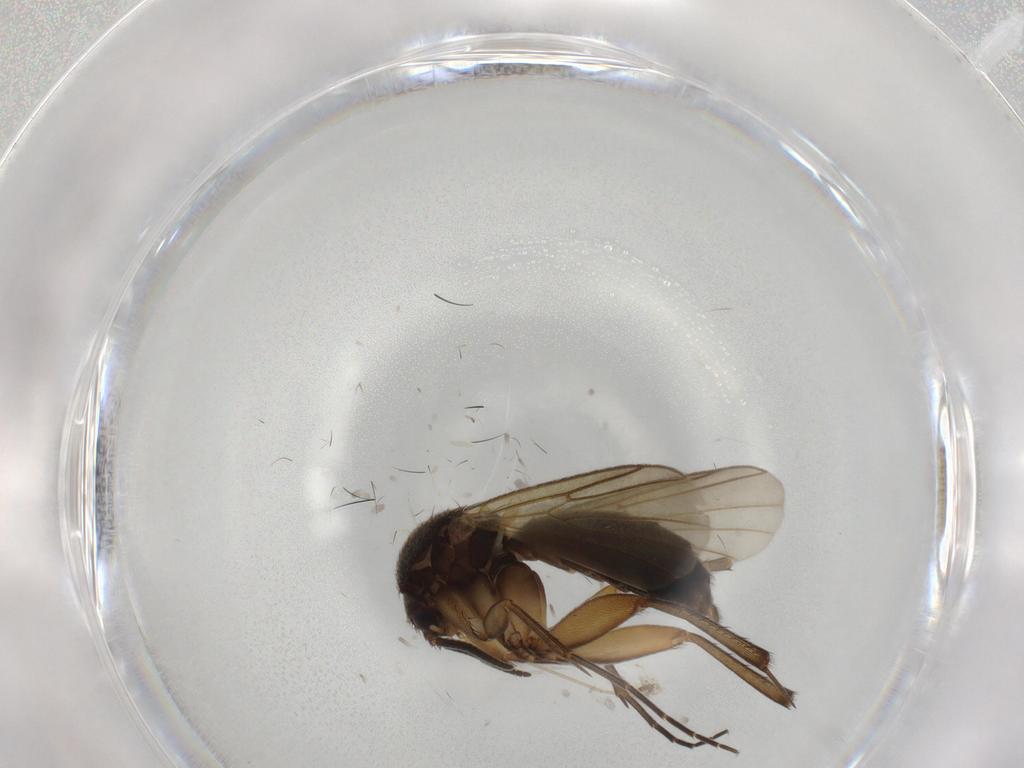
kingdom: Animalia
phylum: Arthropoda
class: Insecta
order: Diptera
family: Mycetophilidae
